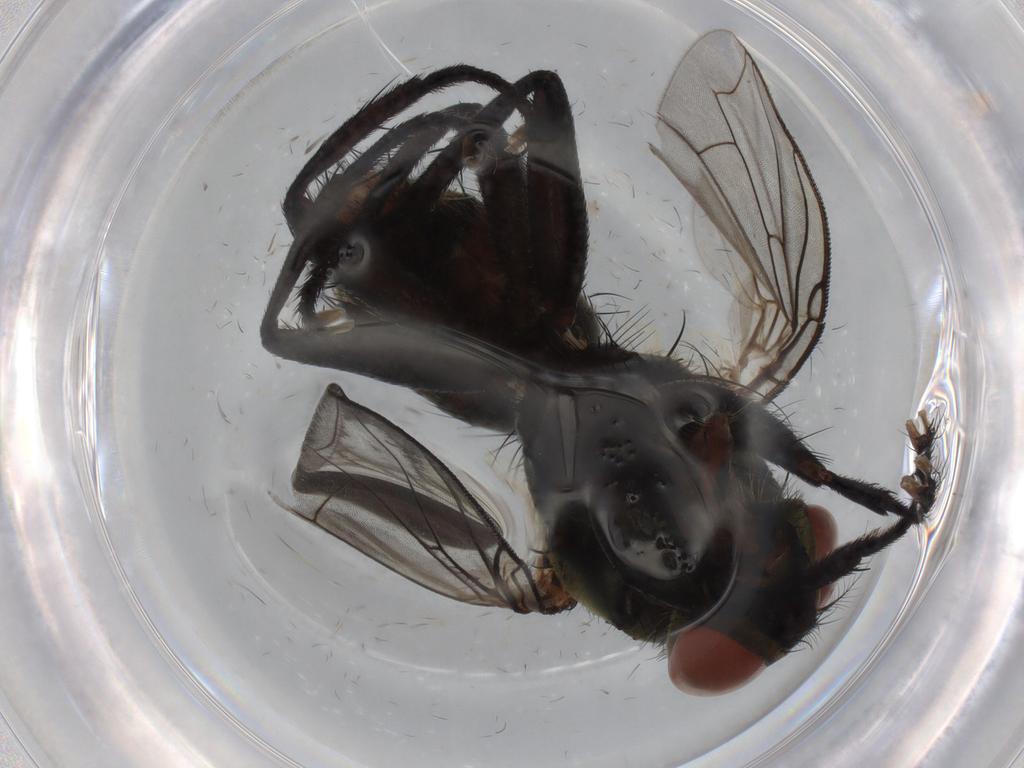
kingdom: Animalia
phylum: Arthropoda
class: Insecta
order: Diptera
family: Sarcophagidae
